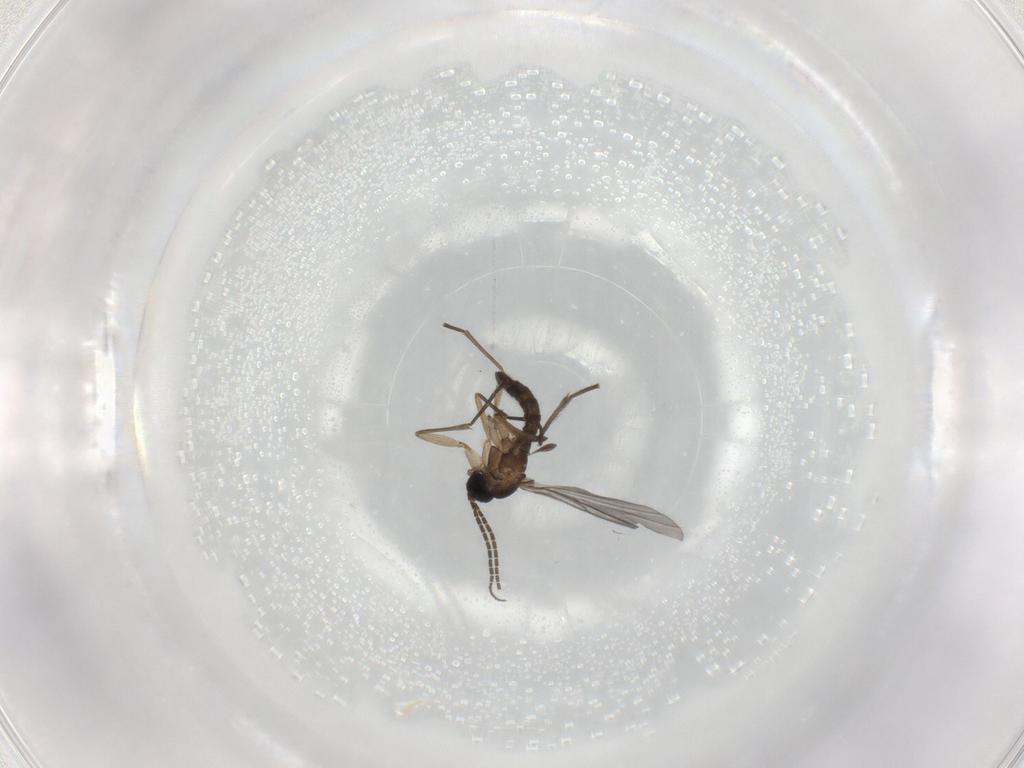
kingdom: Animalia
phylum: Arthropoda
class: Insecta
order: Diptera
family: Sciaridae
